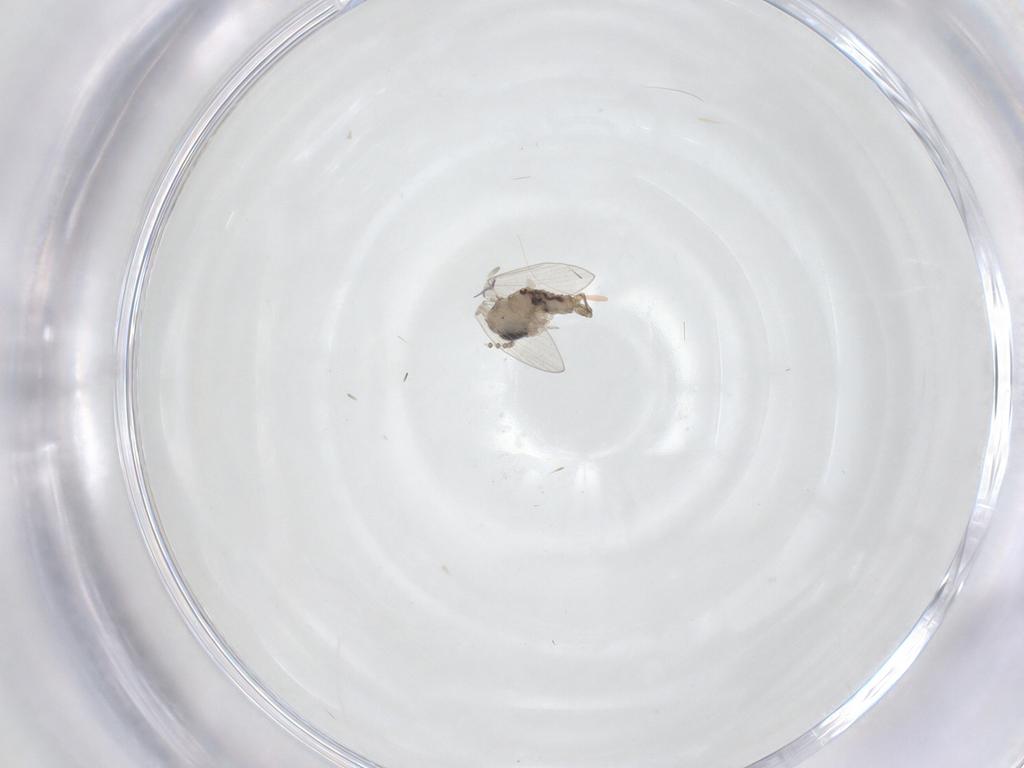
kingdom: Animalia
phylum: Arthropoda
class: Insecta
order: Diptera
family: Psychodidae
